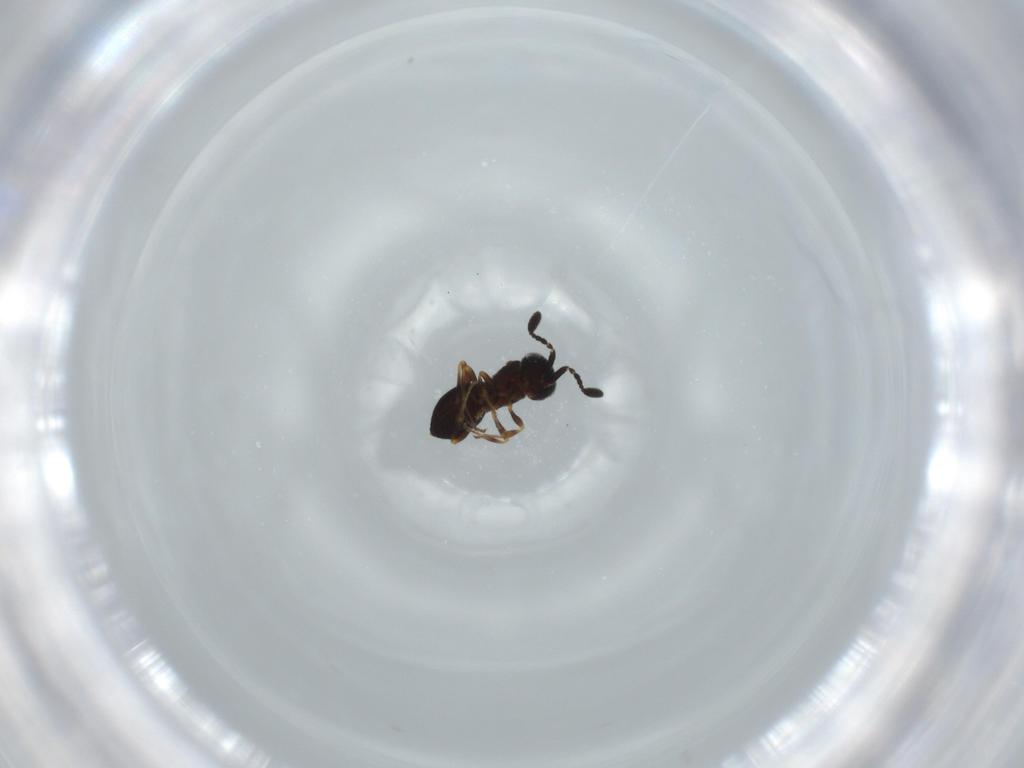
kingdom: Animalia
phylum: Arthropoda
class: Insecta
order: Hymenoptera
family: Scelionidae
